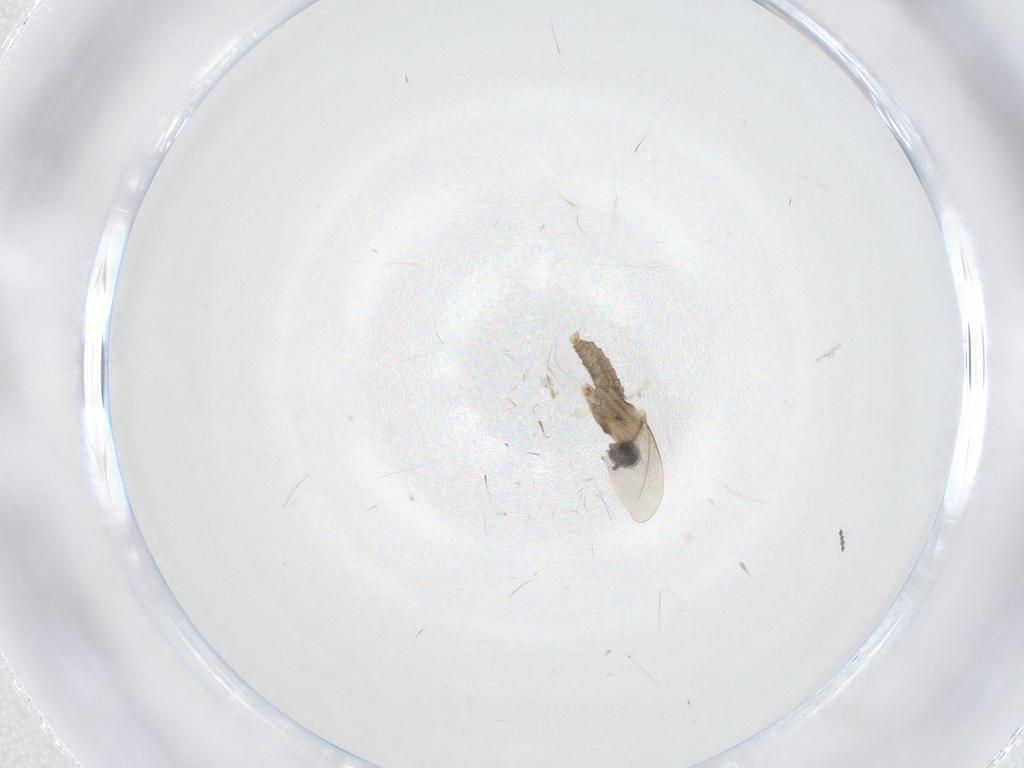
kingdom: Animalia
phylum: Arthropoda
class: Insecta
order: Diptera
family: Cecidomyiidae
